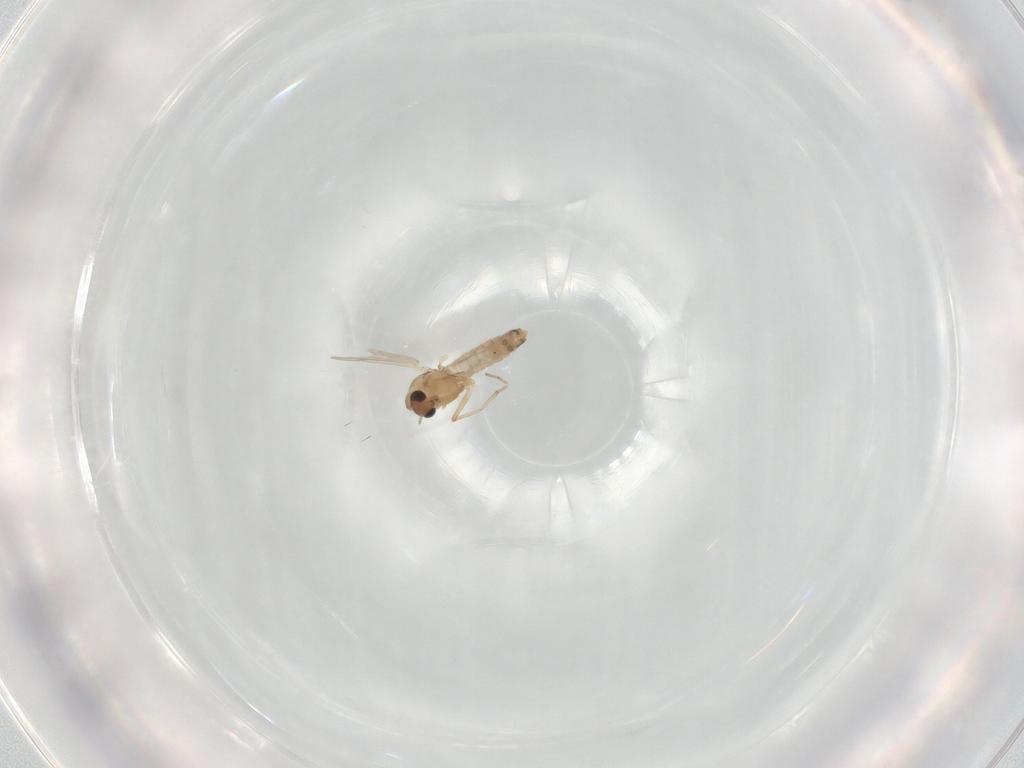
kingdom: Animalia
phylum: Arthropoda
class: Insecta
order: Diptera
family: Chironomidae
